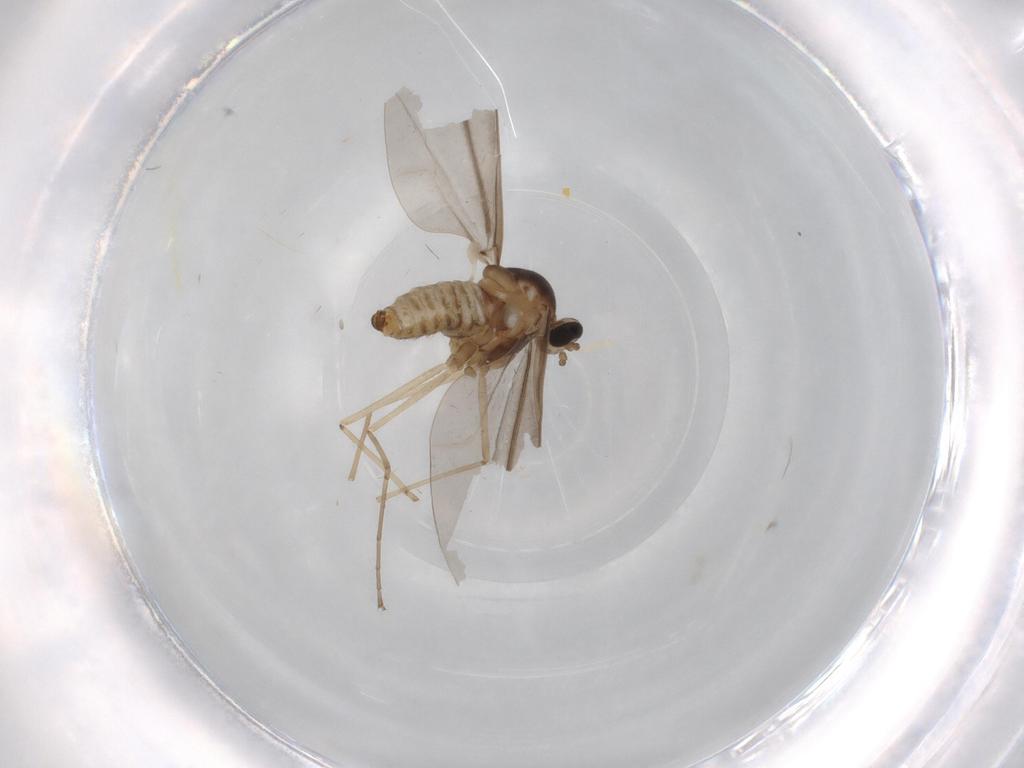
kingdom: Animalia
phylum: Arthropoda
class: Insecta
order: Diptera
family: Cecidomyiidae
